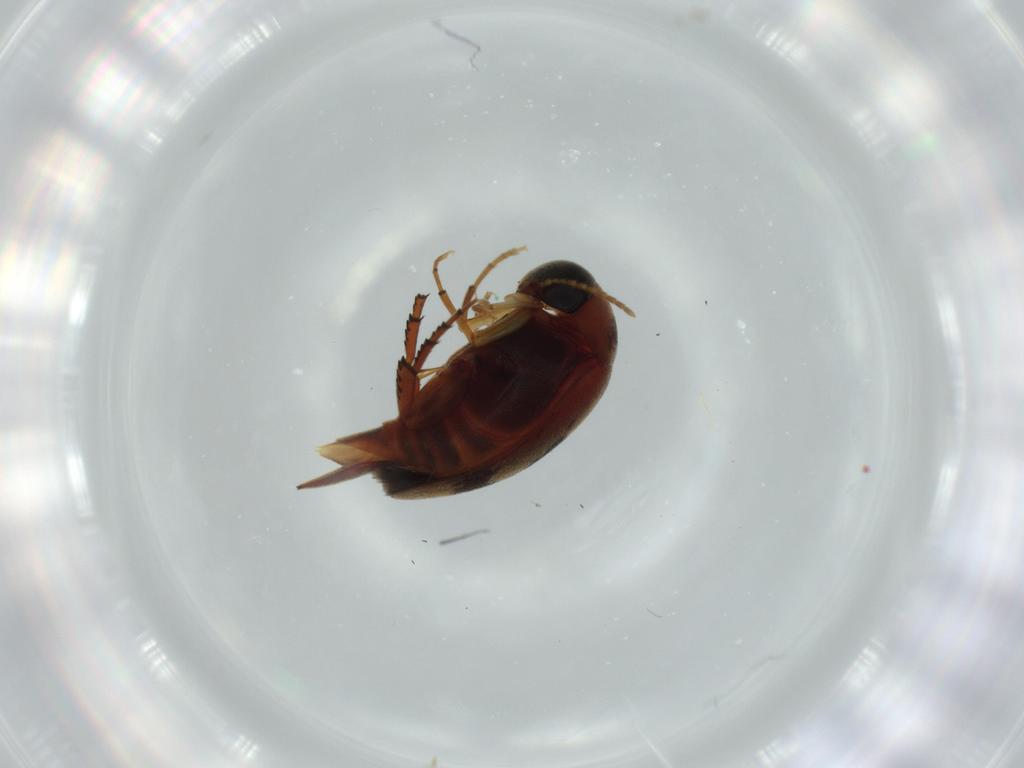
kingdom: Animalia
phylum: Arthropoda
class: Insecta
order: Coleoptera
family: Mordellidae
